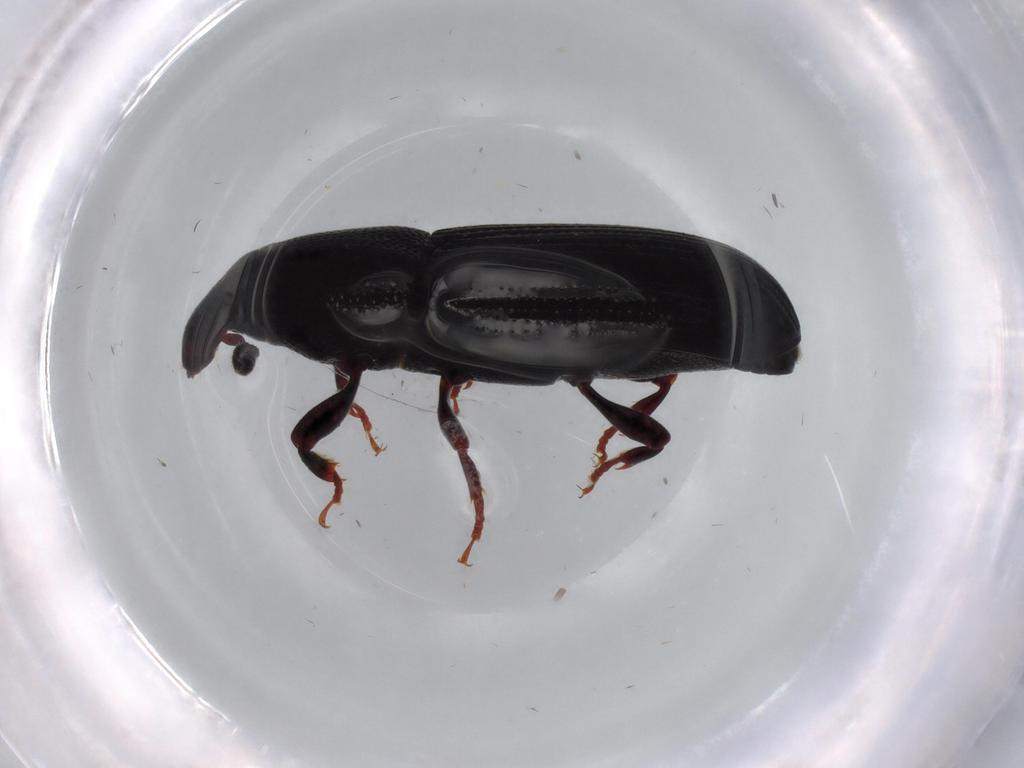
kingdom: Animalia
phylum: Arthropoda
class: Insecta
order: Coleoptera
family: Curculionidae
